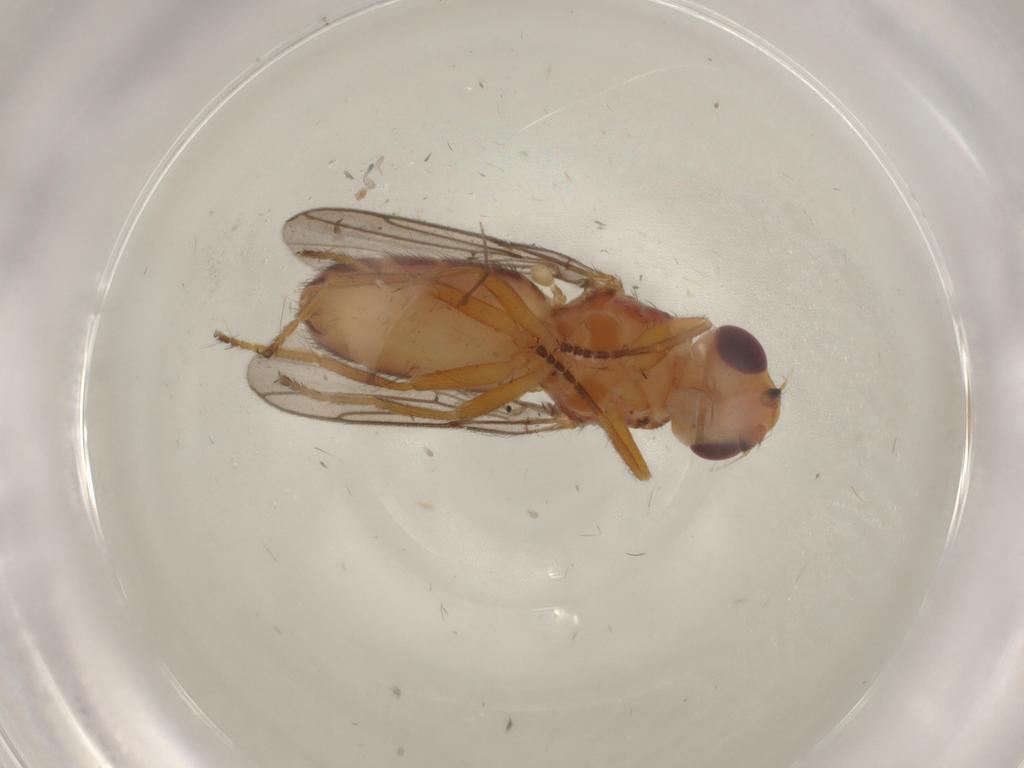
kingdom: Animalia
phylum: Arthropoda
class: Insecta
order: Diptera
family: Chloropidae
